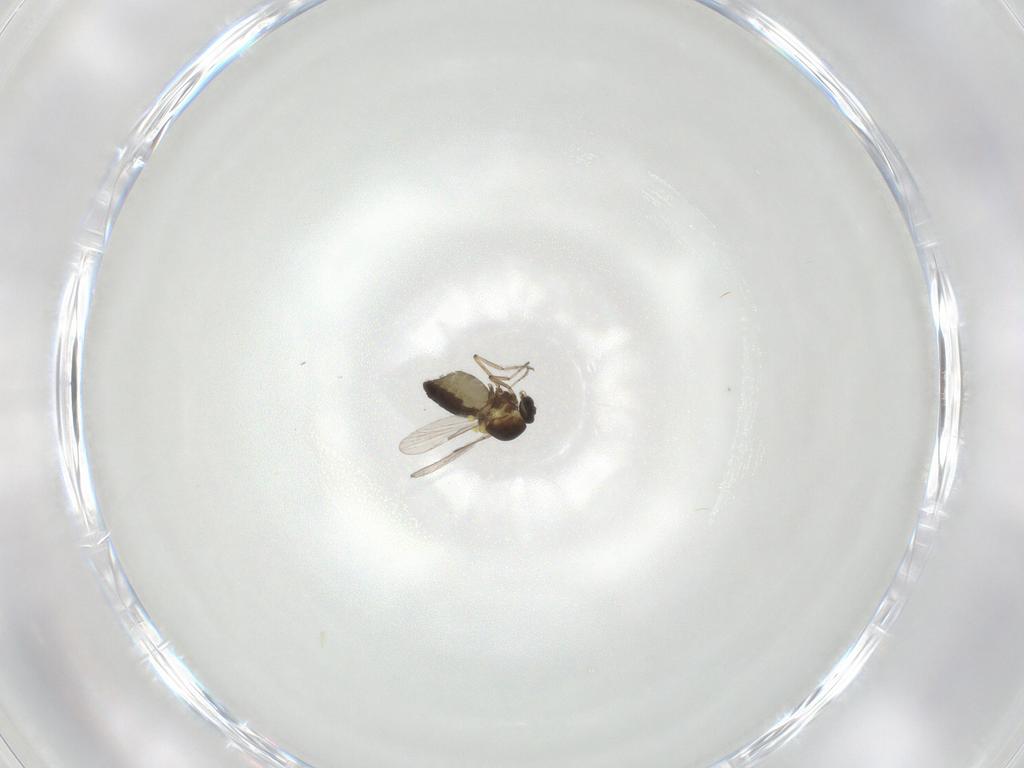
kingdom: Animalia
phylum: Arthropoda
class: Insecta
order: Diptera
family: Ceratopogonidae
